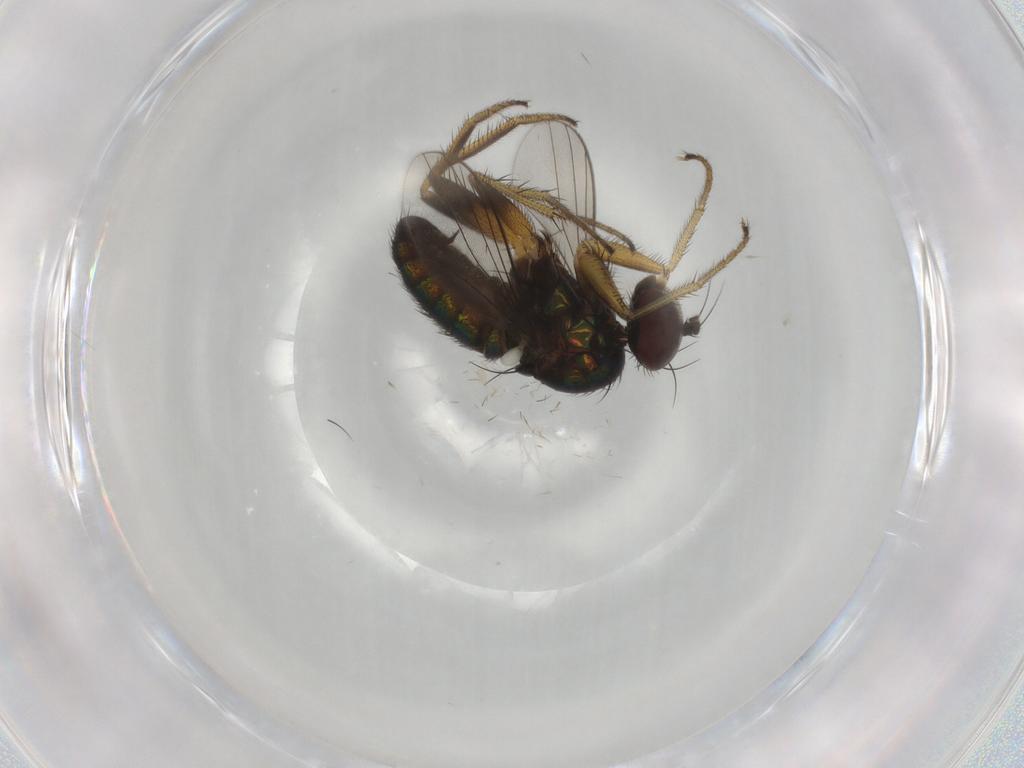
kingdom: Animalia
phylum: Arthropoda
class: Insecta
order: Diptera
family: Dolichopodidae
